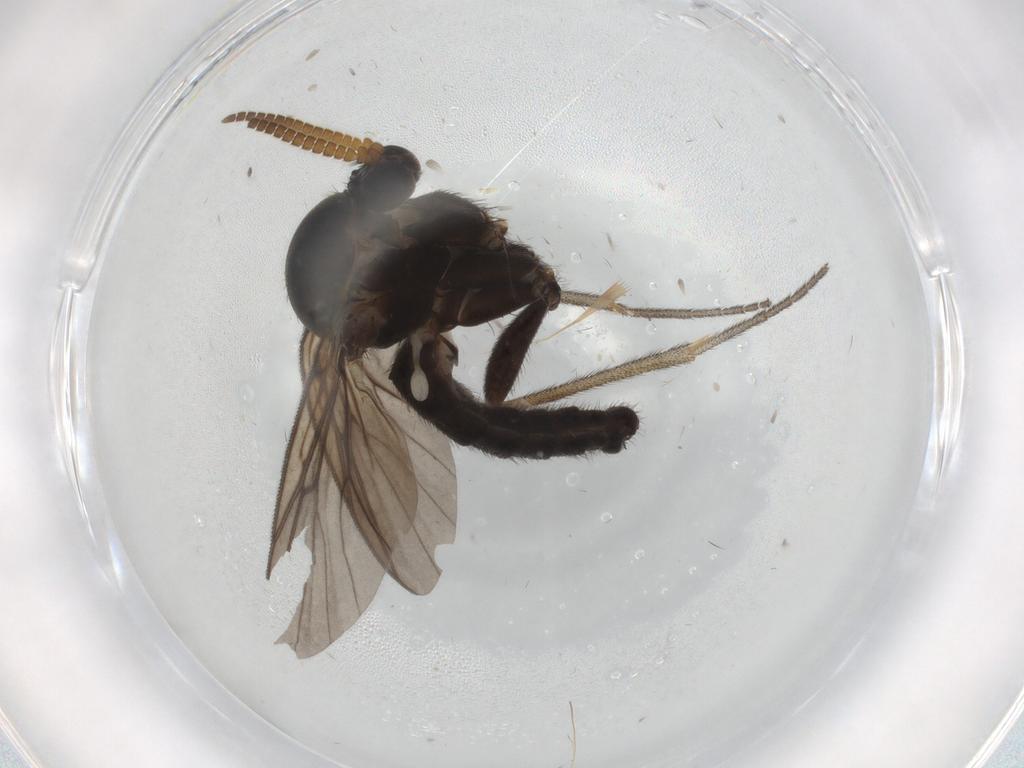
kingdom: Animalia
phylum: Arthropoda
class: Insecta
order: Diptera
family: Mycetophilidae
